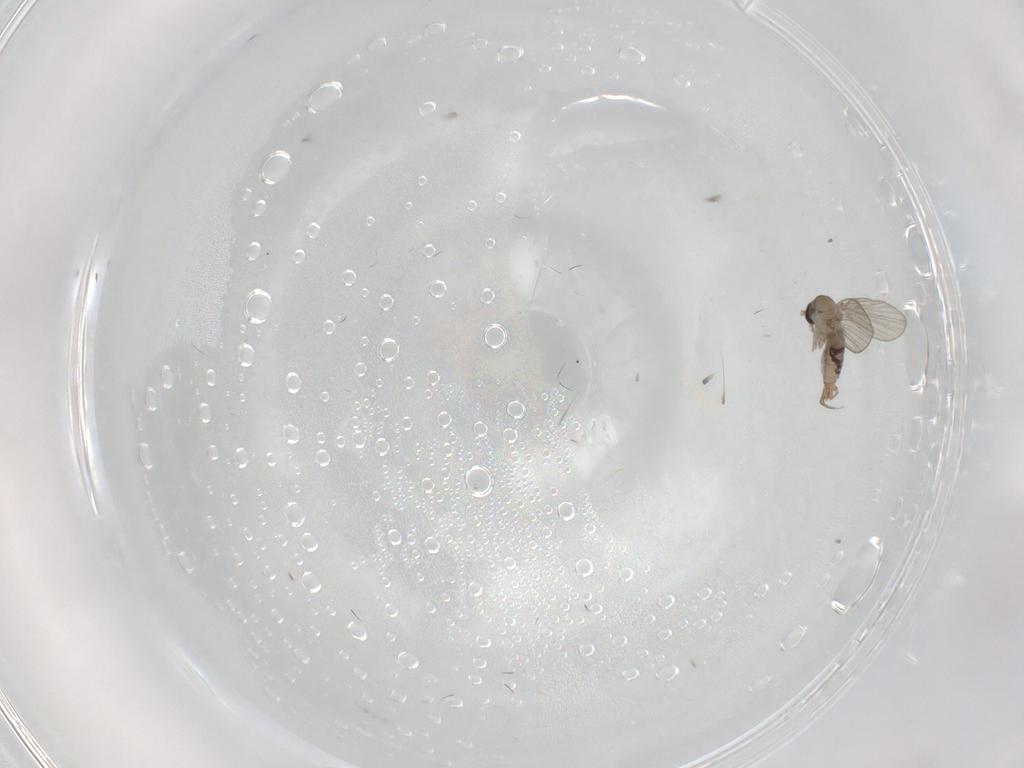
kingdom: Animalia
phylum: Arthropoda
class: Insecta
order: Diptera
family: Psychodidae
